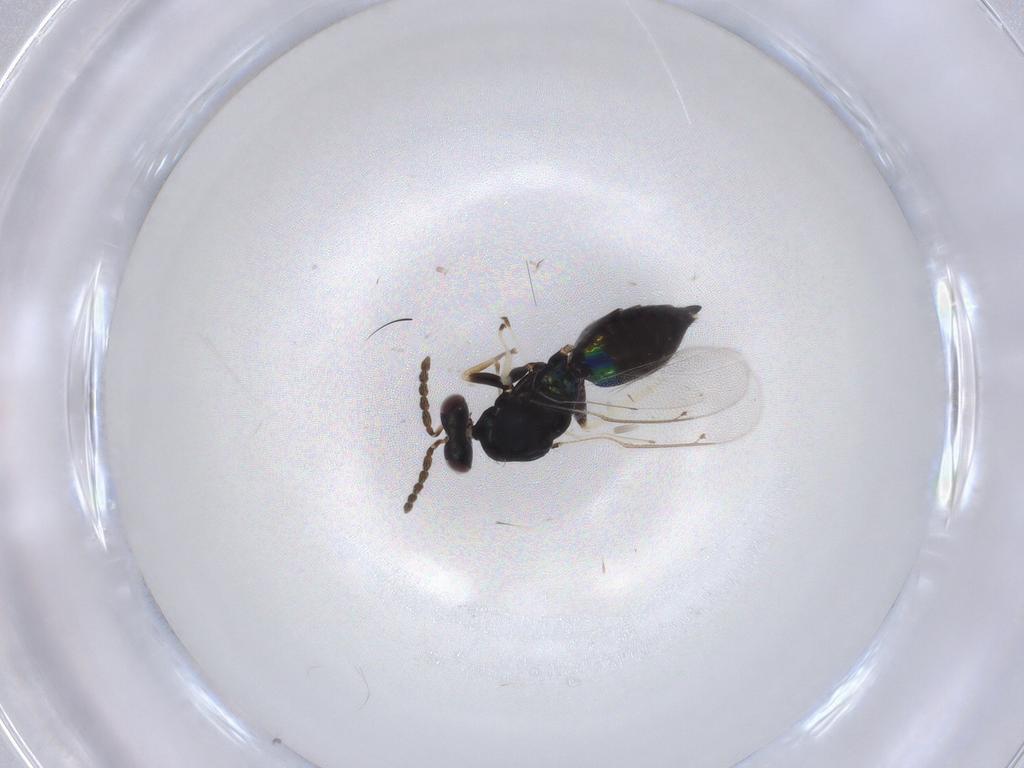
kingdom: Animalia
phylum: Arthropoda
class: Insecta
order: Hymenoptera
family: Eulophidae
